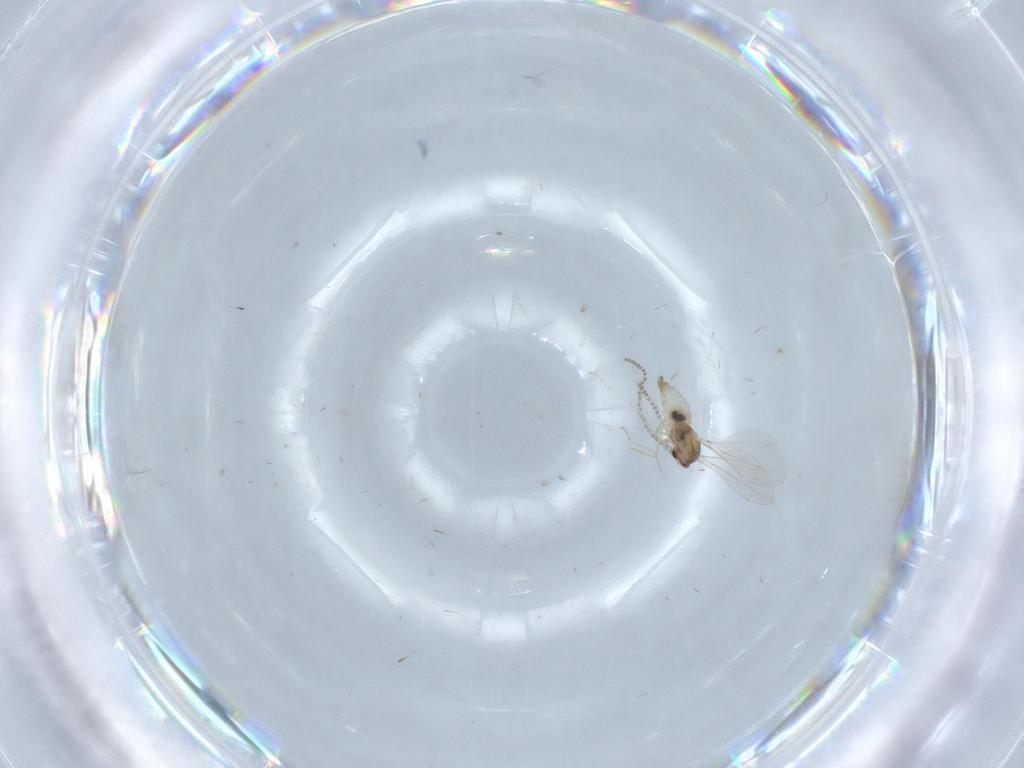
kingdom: Animalia
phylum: Arthropoda
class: Insecta
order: Diptera
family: Cecidomyiidae
